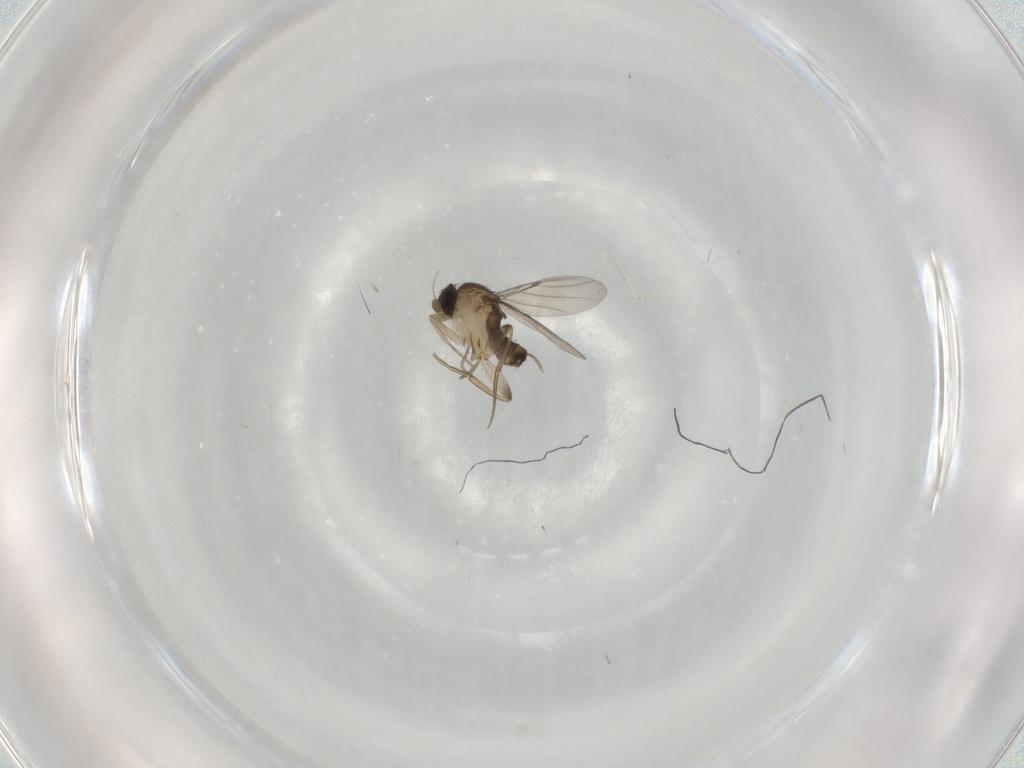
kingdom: Animalia
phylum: Arthropoda
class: Insecta
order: Diptera
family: Phoridae
